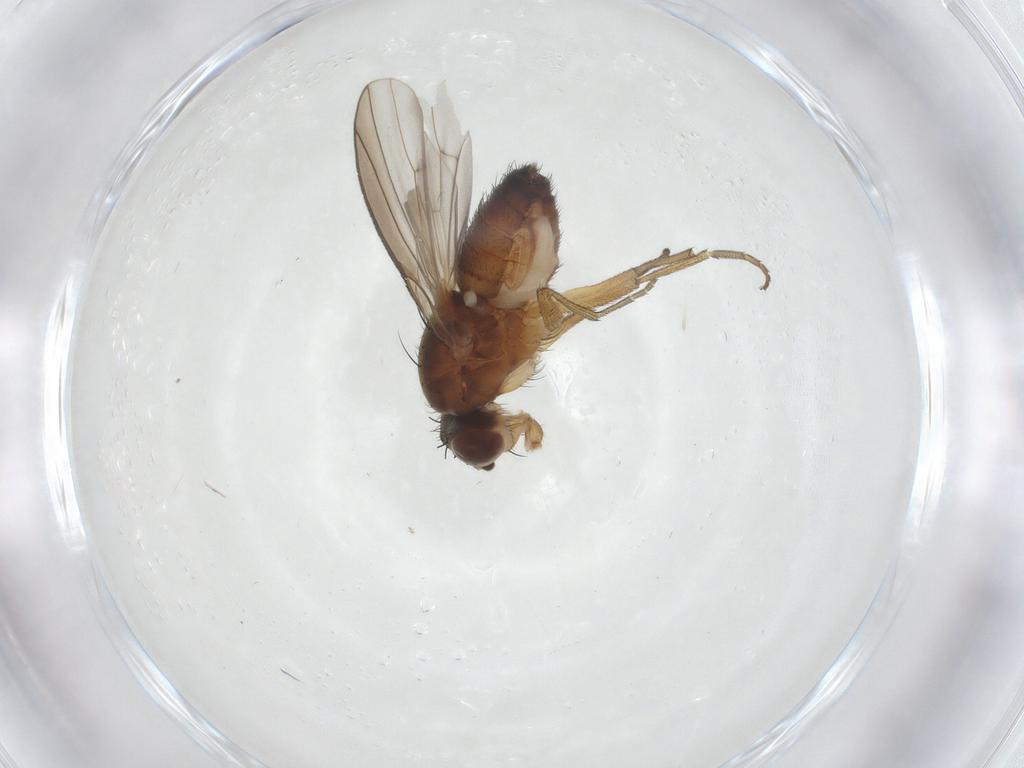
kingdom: Animalia
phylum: Arthropoda
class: Insecta
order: Diptera
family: Heleomyzidae
